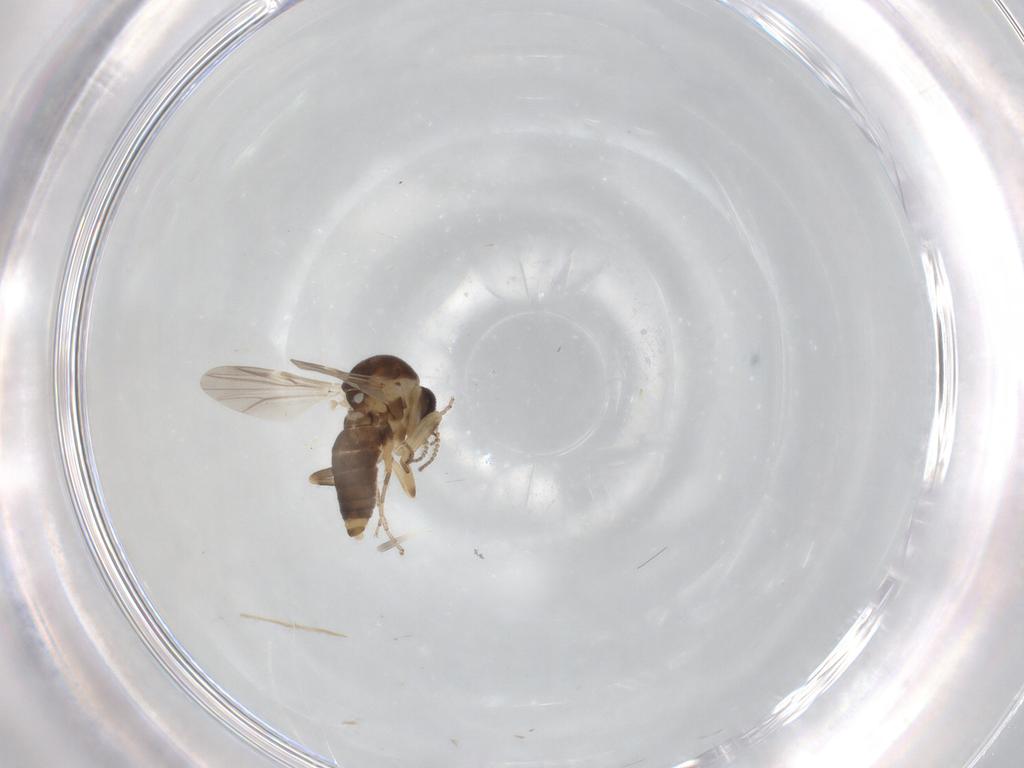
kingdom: Animalia
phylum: Arthropoda
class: Insecta
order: Diptera
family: Ceratopogonidae
